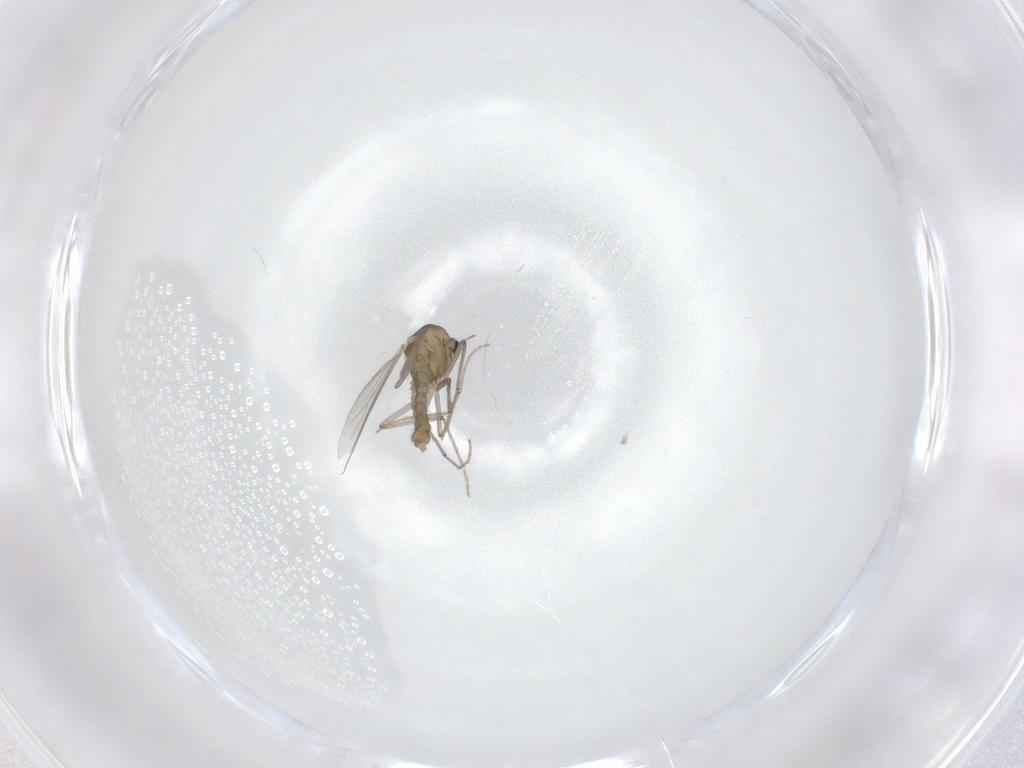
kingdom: Animalia
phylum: Arthropoda
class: Insecta
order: Diptera
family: Chironomidae
